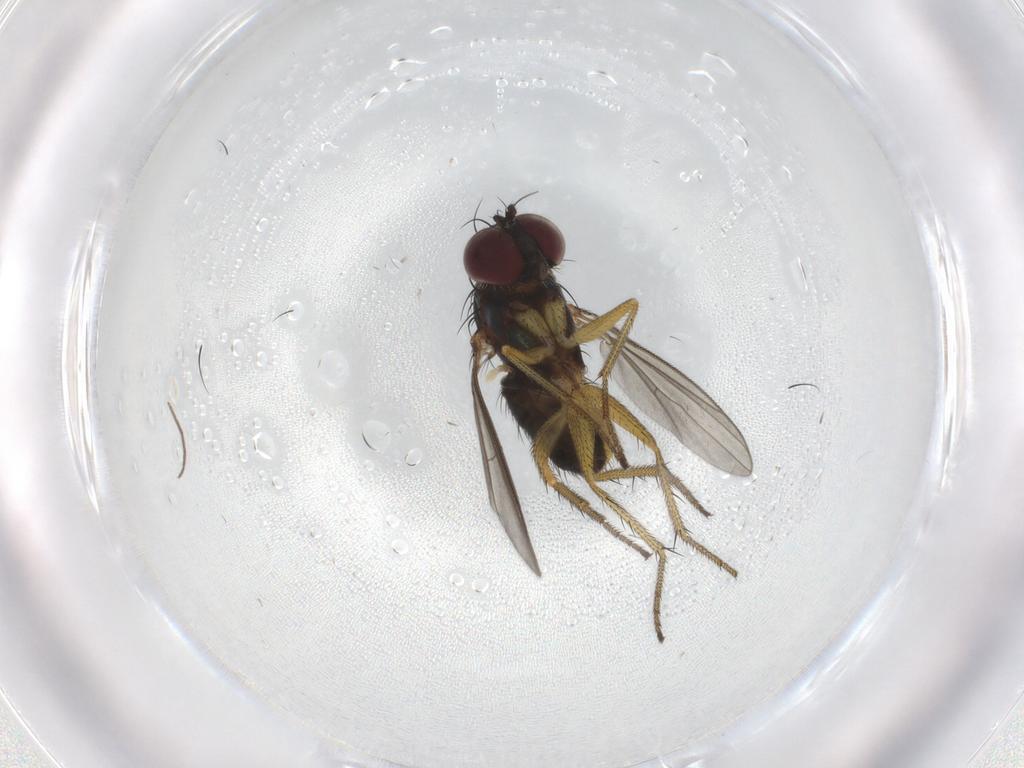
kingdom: Animalia
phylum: Arthropoda
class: Insecta
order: Diptera
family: Dolichopodidae
